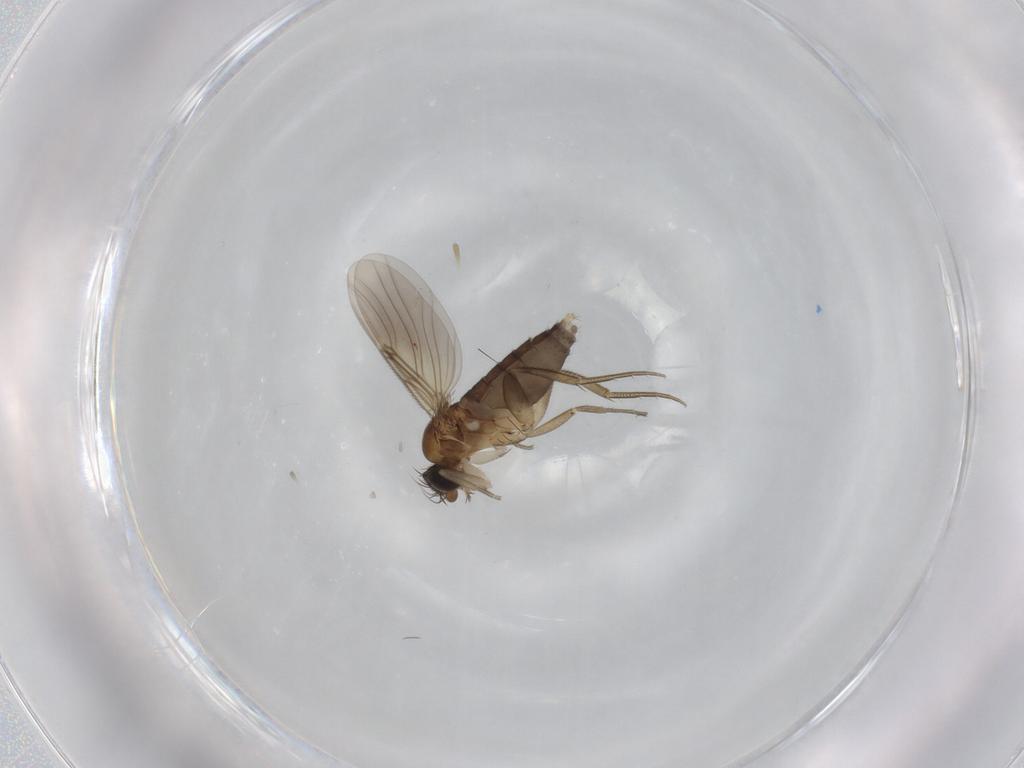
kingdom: Animalia
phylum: Arthropoda
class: Insecta
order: Diptera
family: Phoridae
